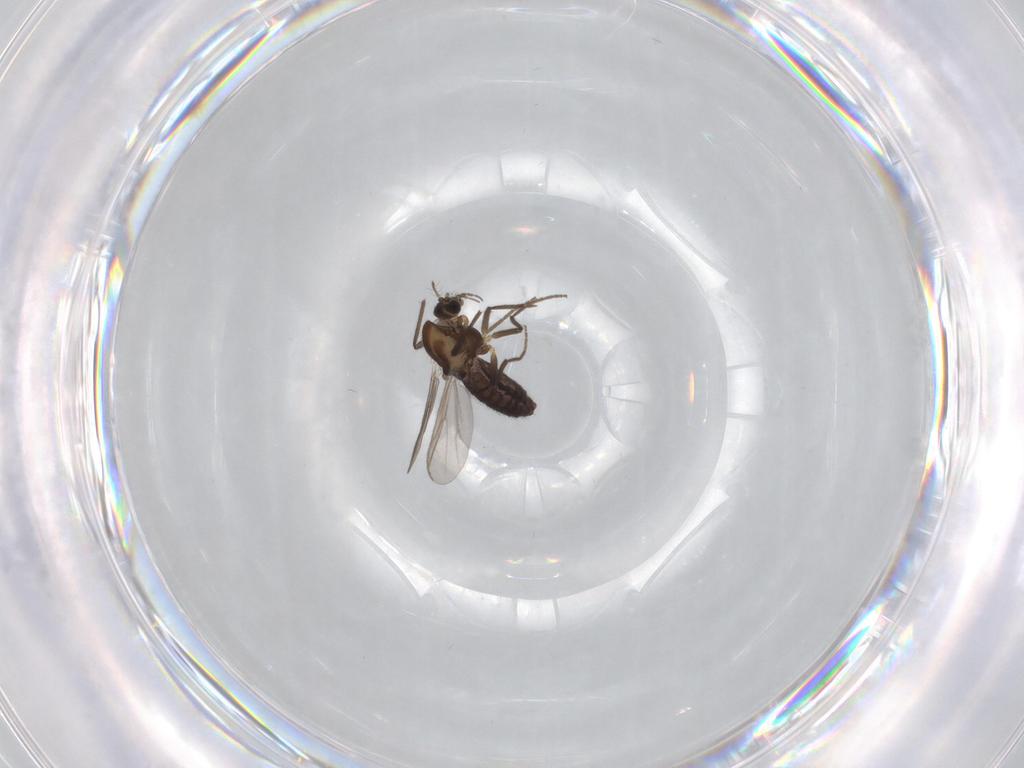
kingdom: Animalia
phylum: Arthropoda
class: Insecta
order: Diptera
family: Chironomidae
